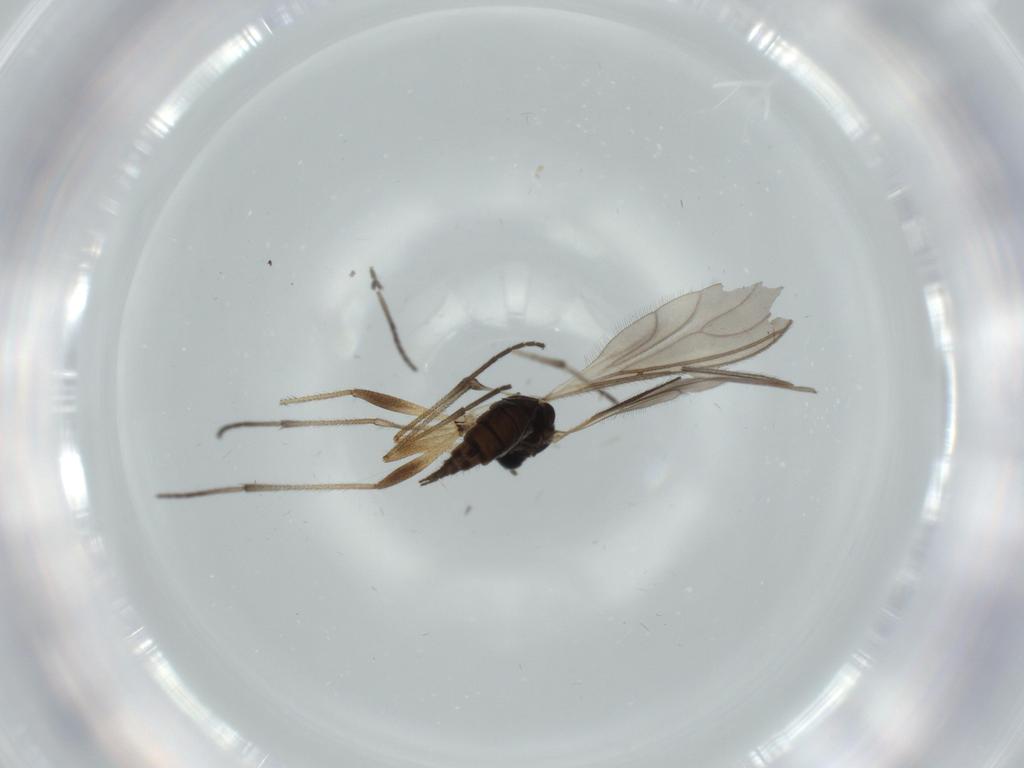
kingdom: Animalia
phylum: Arthropoda
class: Insecta
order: Diptera
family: Sciaridae
